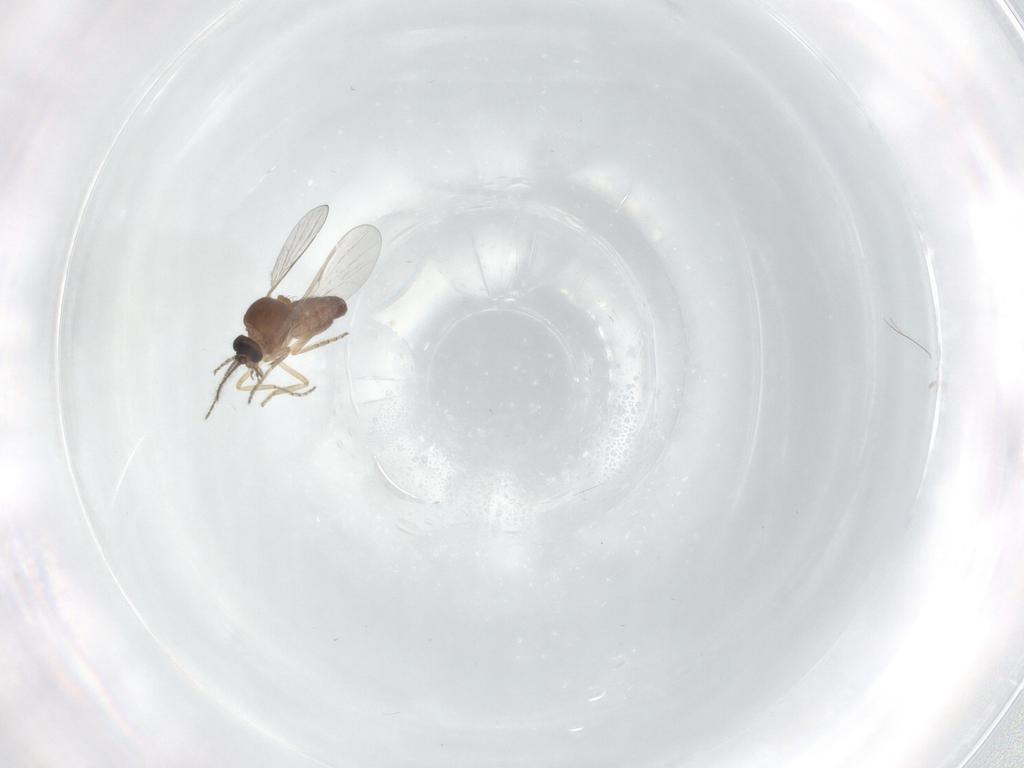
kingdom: Animalia
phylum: Arthropoda
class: Insecta
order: Diptera
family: Ceratopogonidae
